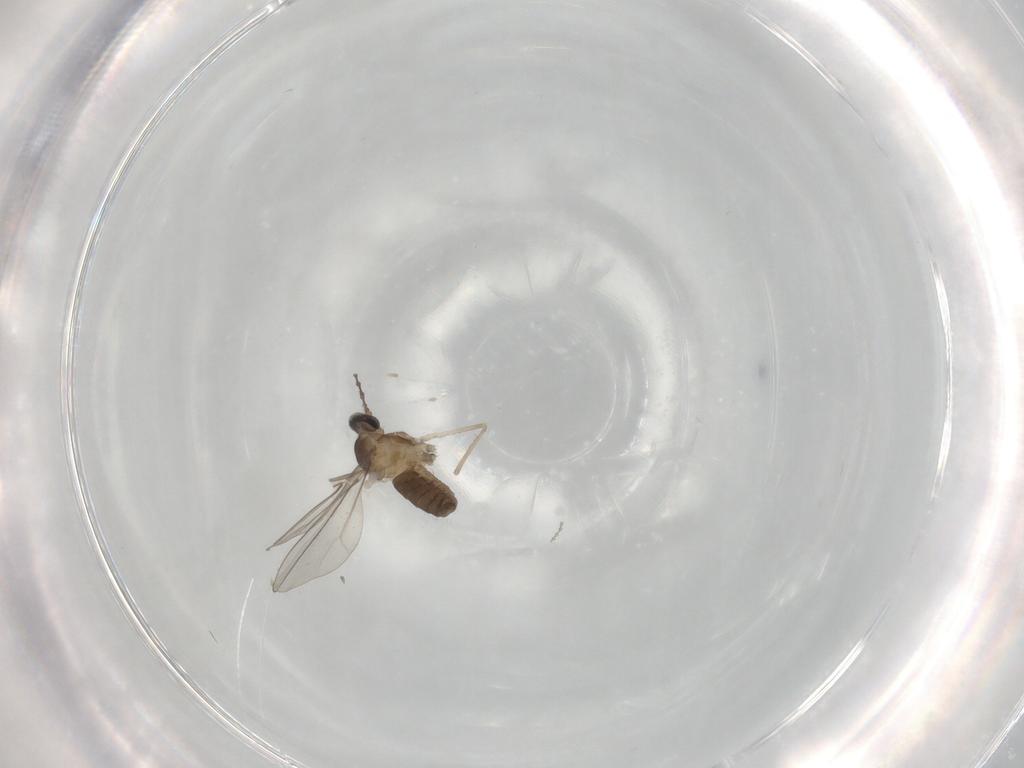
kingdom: Animalia
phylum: Arthropoda
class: Insecta
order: Diptera
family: Cecidomyiidae
